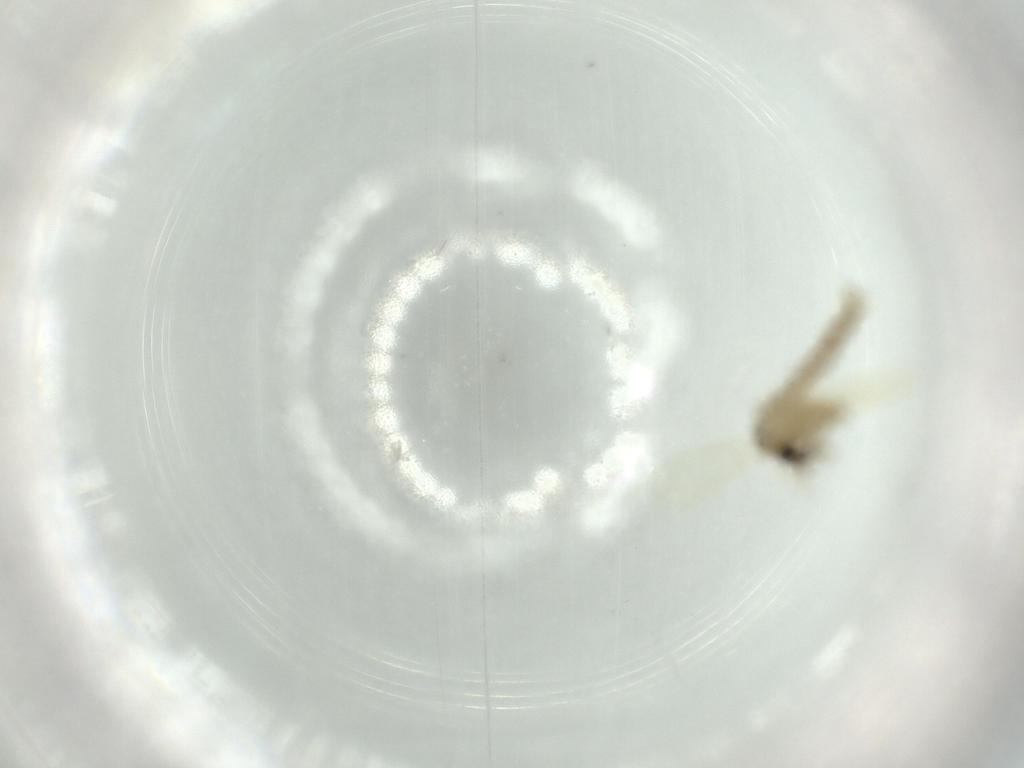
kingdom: Animalia
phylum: Arthropoda
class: Insecta
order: Diptera
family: Psychodidae
